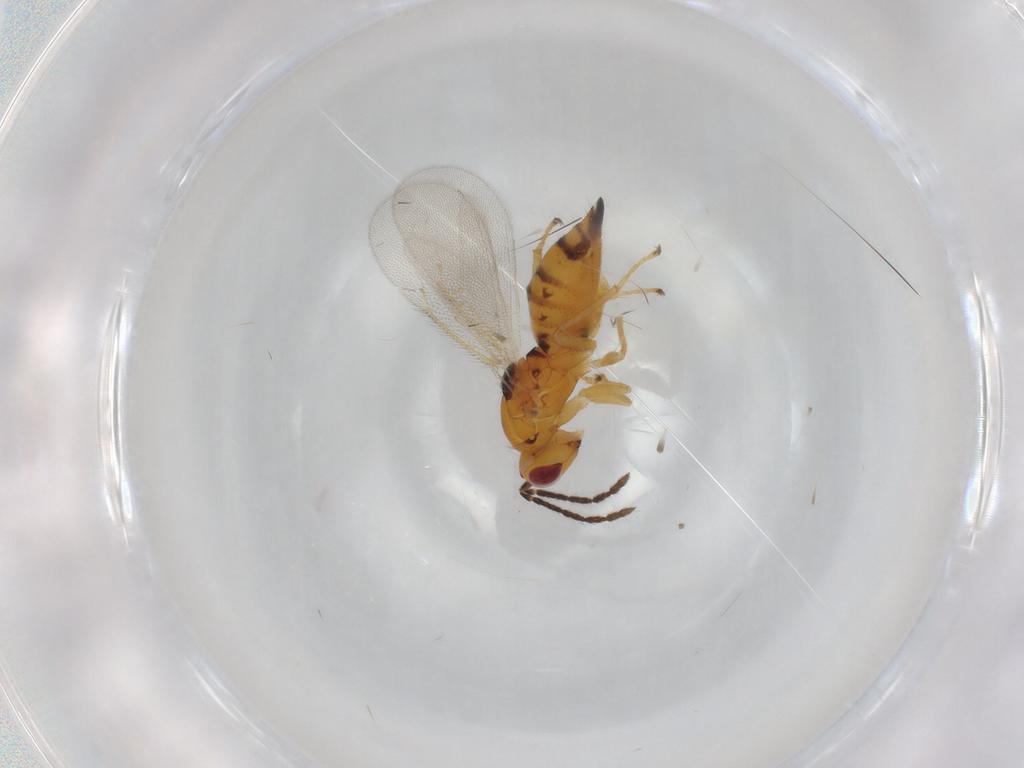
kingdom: Animalia
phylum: Arthropoda
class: Insecta
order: Hymenoptera
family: Eulophidae
